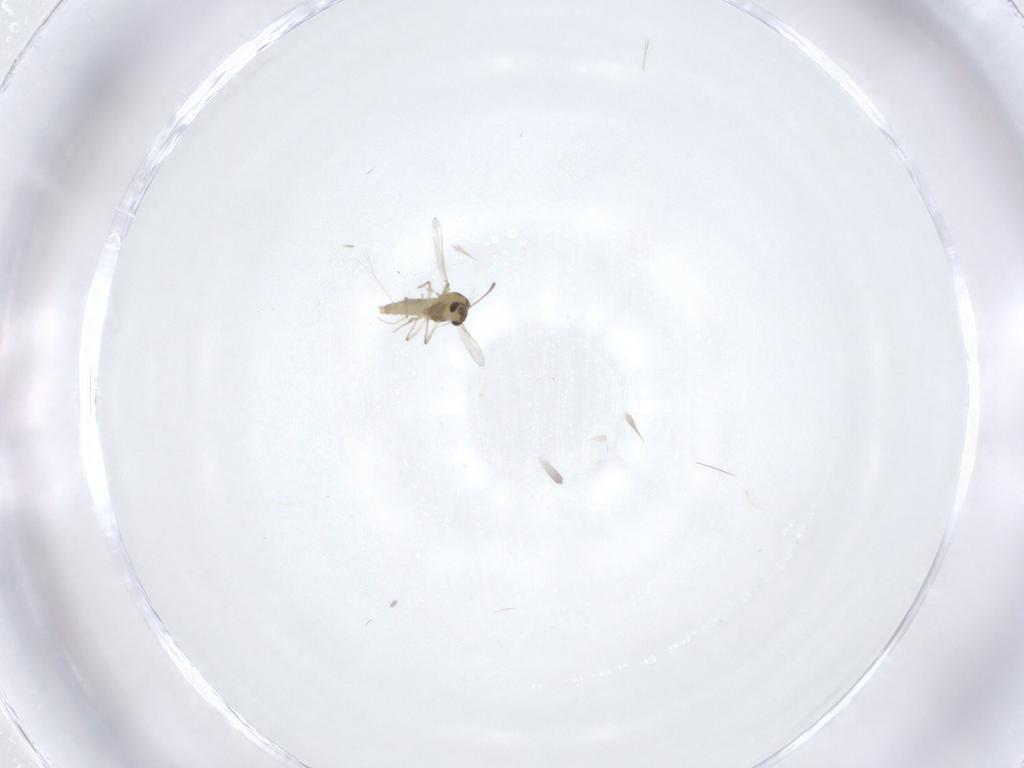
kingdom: Animalia
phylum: Arthropoda
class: Insecta
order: Diptera
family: Chironomidae
